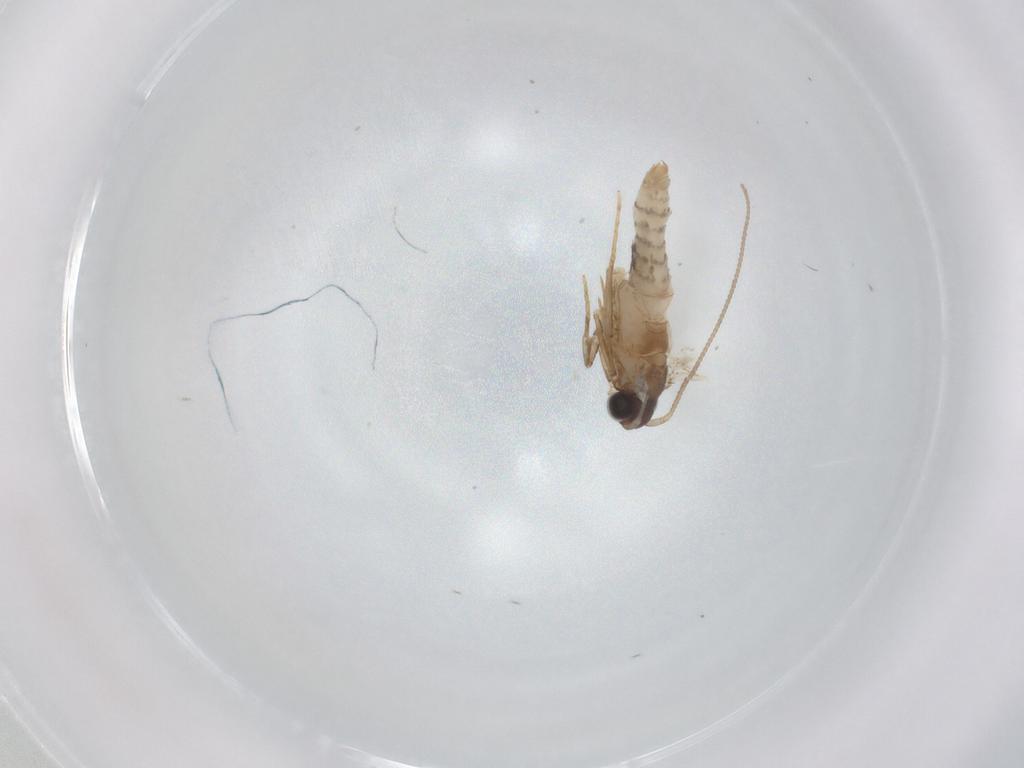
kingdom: Animalia
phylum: Arthropoda
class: Insecta
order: Lepidoptera
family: Tineidae
